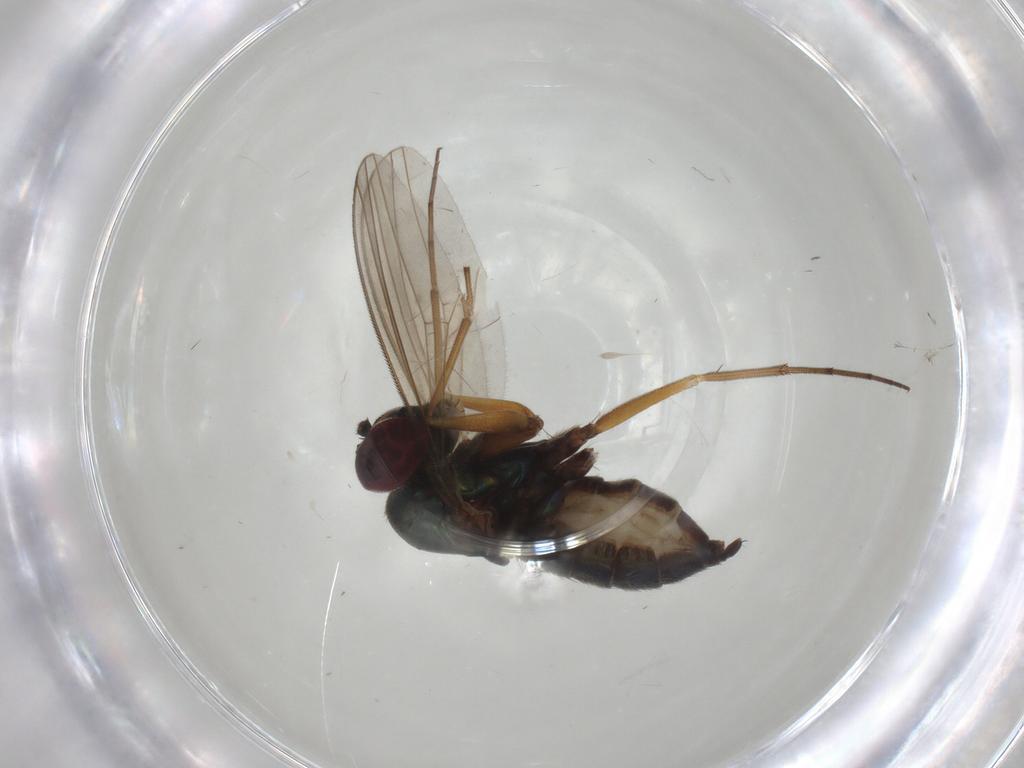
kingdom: Animalia
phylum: Arthropoda
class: Insecta
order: Diptera
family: Dolichopodidae
